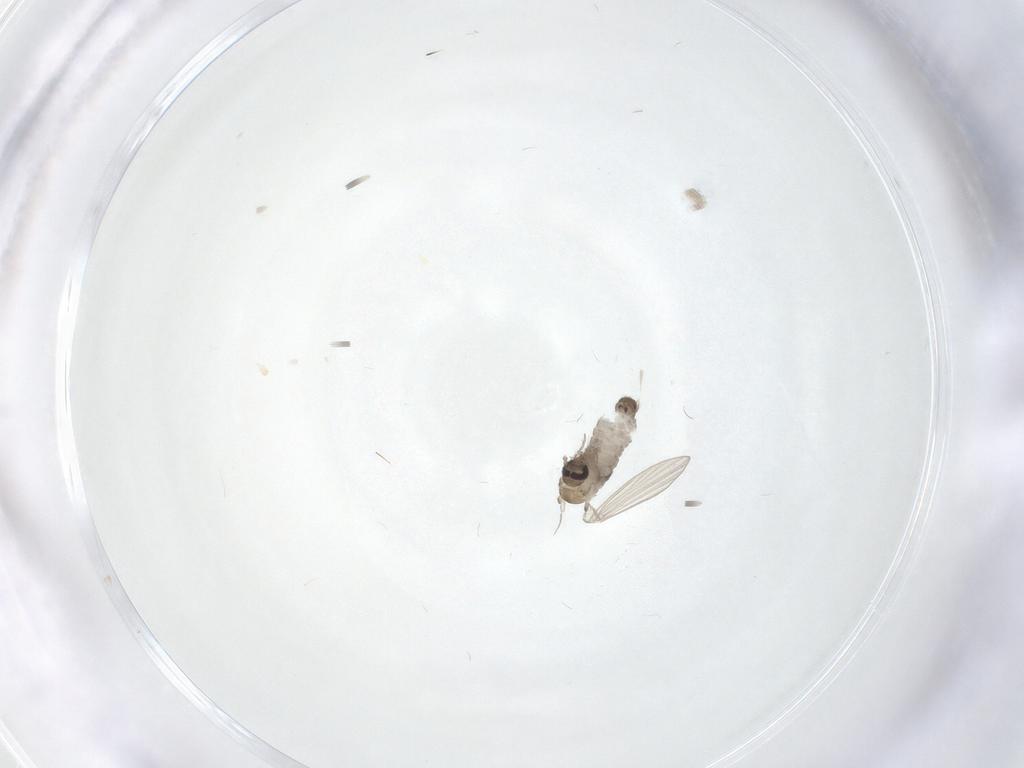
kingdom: Animalia
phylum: Arthropoda
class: Insecta
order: Diptera
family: Psychodidae
